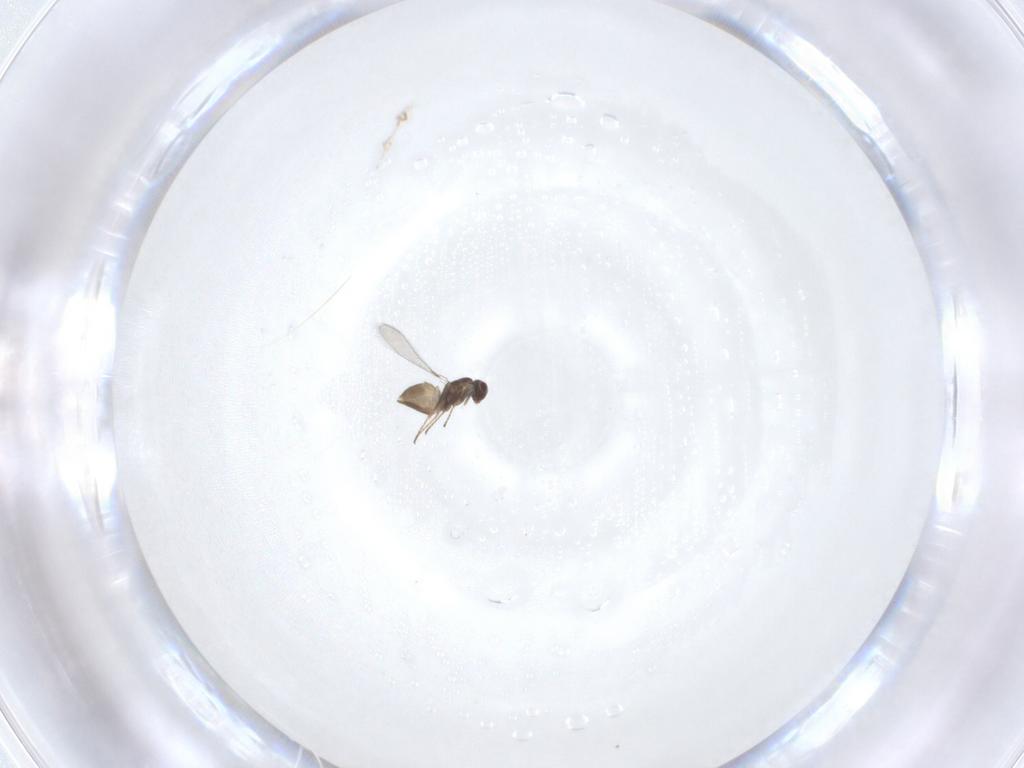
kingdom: Animalia
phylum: Arthropoda
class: Insecta
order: Hymenoptera
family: Mymaridae
